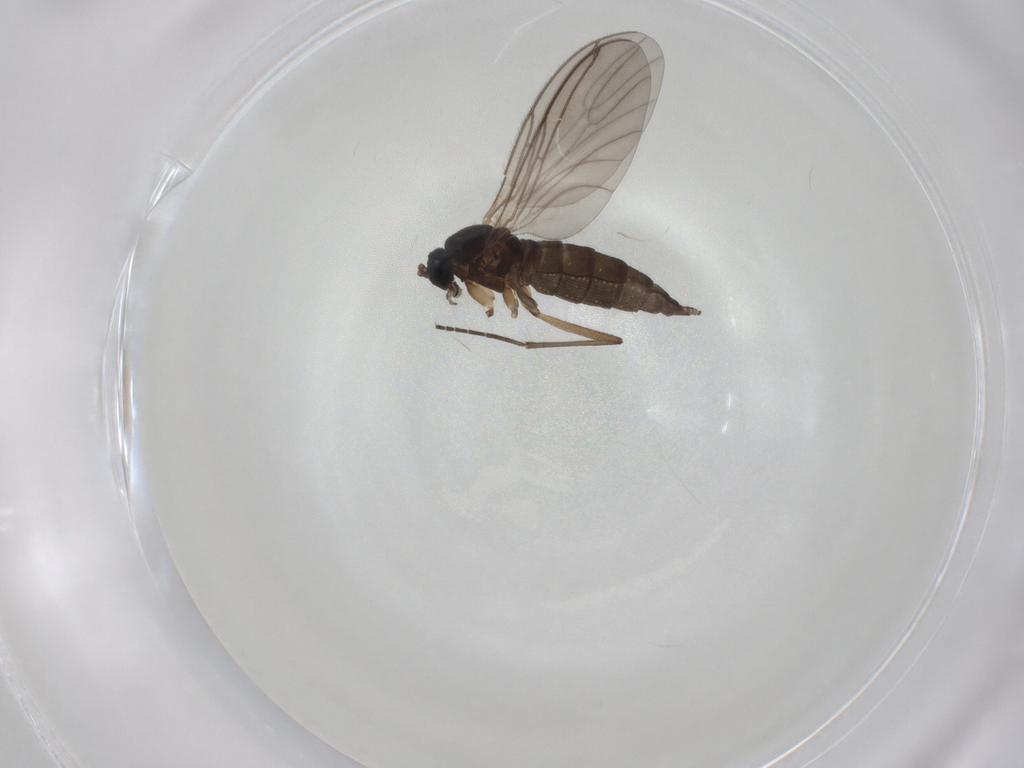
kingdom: Animalia
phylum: Arthropoda
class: Insecta
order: Diptera
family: Sciaridae
